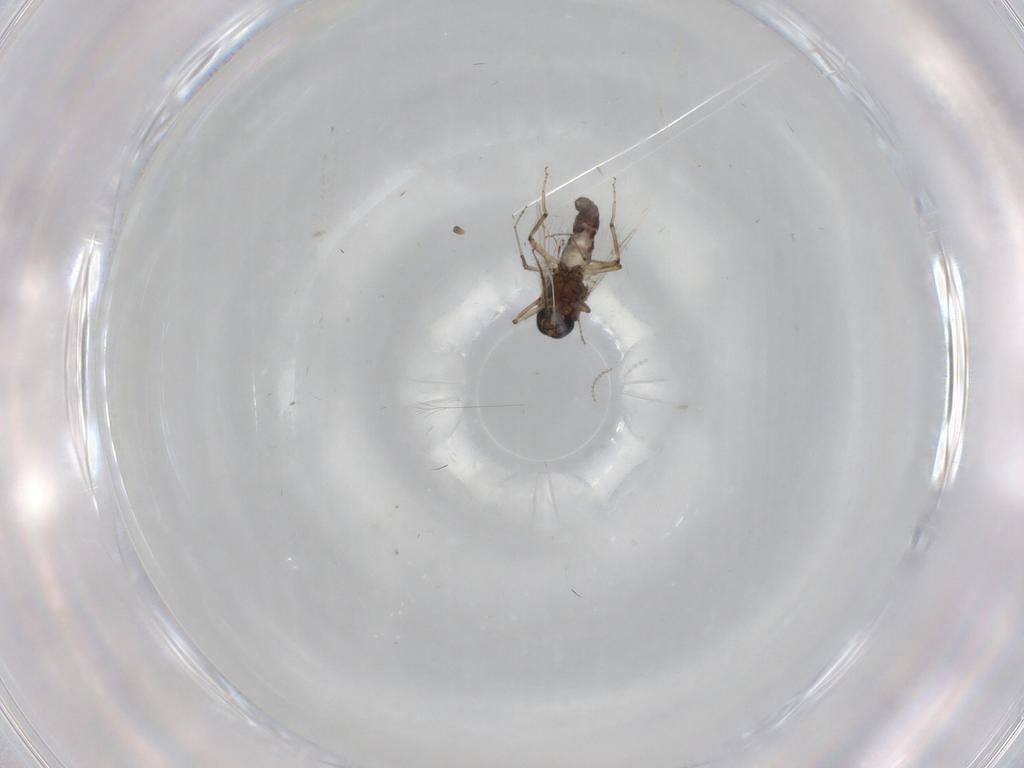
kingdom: Animalia
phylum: Arthropoda
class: Insecta
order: Diptera
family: Ceratopogonidae
